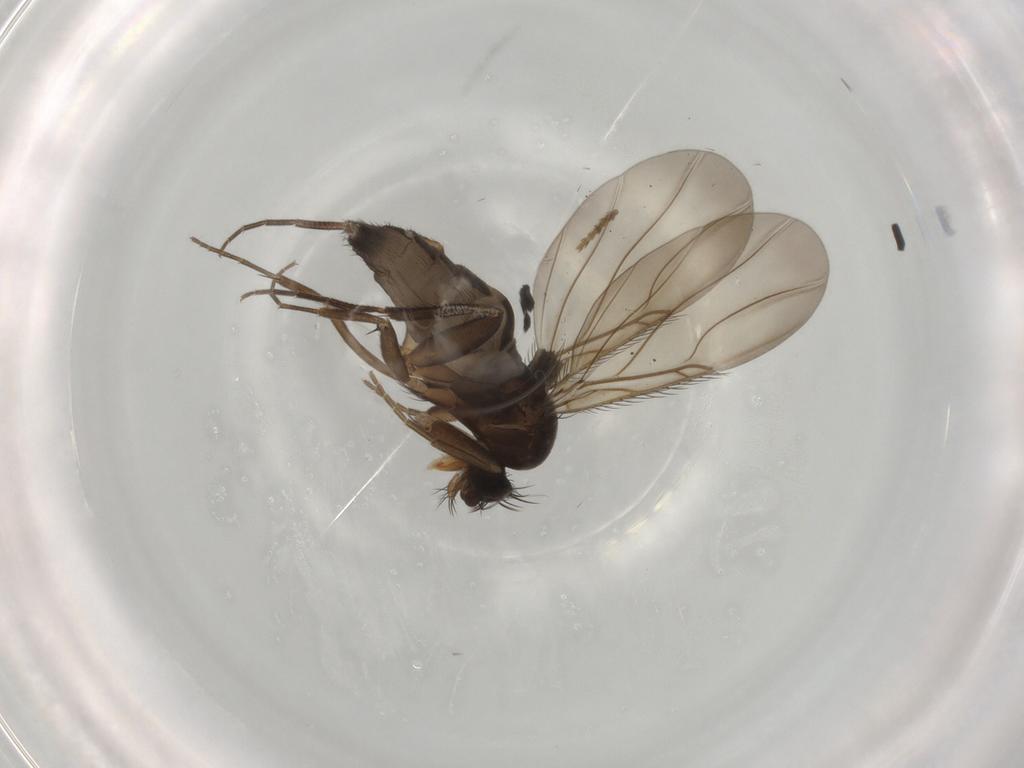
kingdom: Animalia
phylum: Arthropoda
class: Insecta
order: Diptera
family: Phoridae
